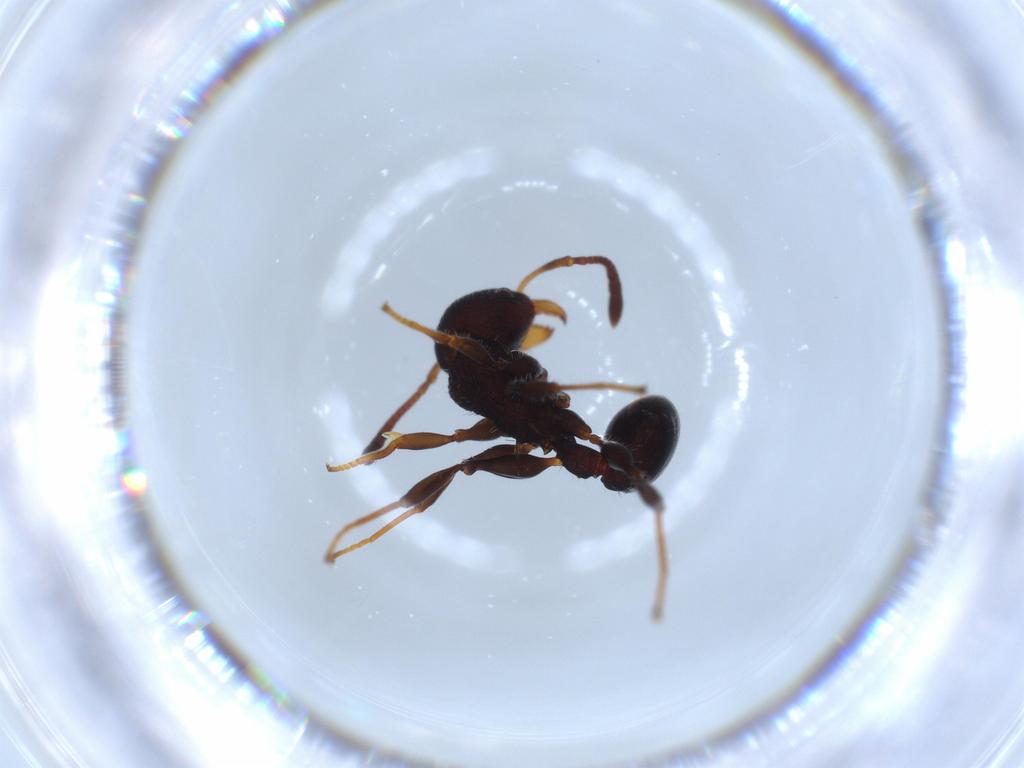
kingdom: Animalia
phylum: Arthropoda
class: Insecta
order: Hymenoptera
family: Formicidae
